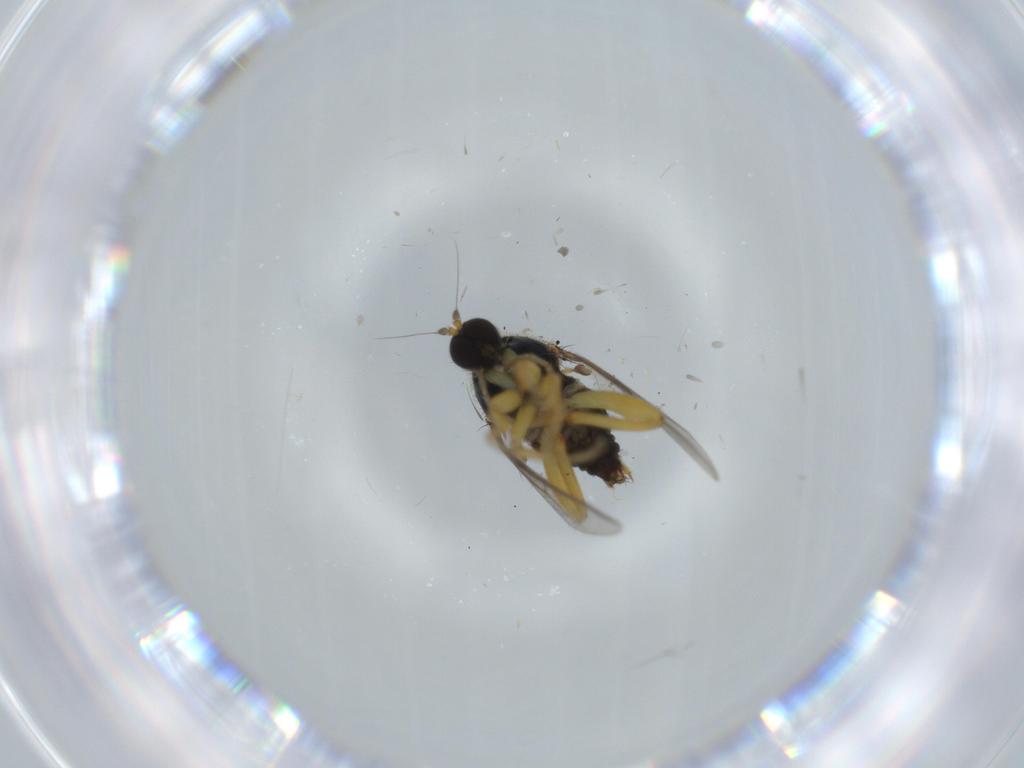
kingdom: Animalia
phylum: Arthropoda
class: Insecta
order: Diptera
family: Hybotidae
